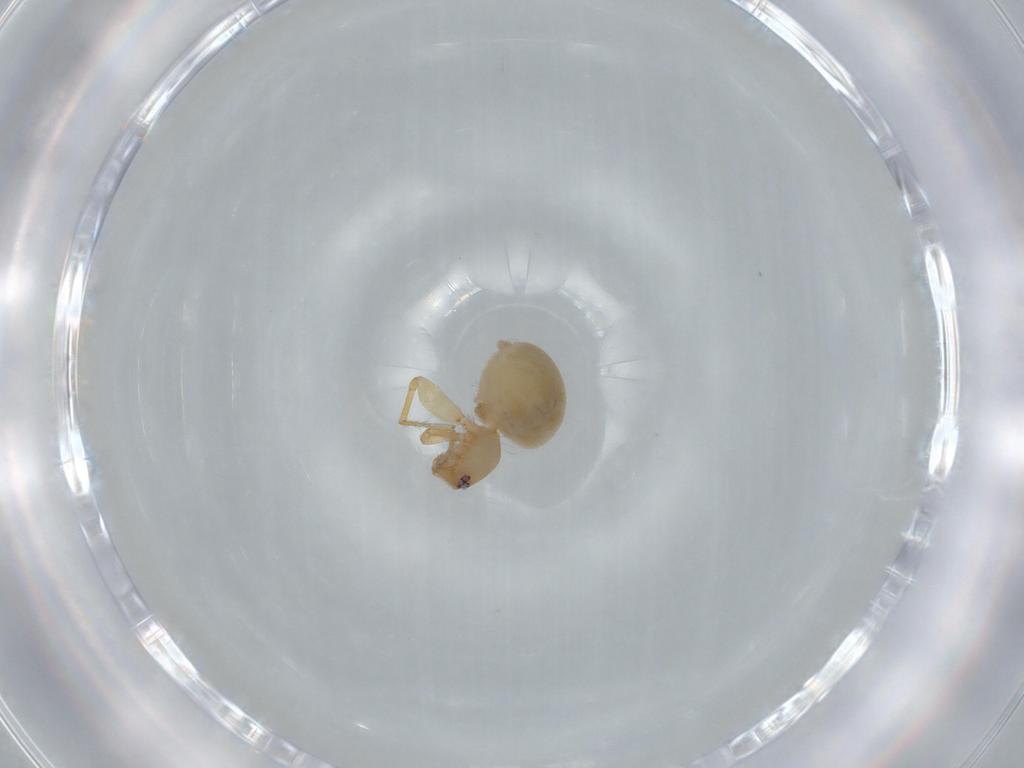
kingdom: Animalia
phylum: Arthropoda
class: Arachnida
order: Araneae
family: Oonopidae
